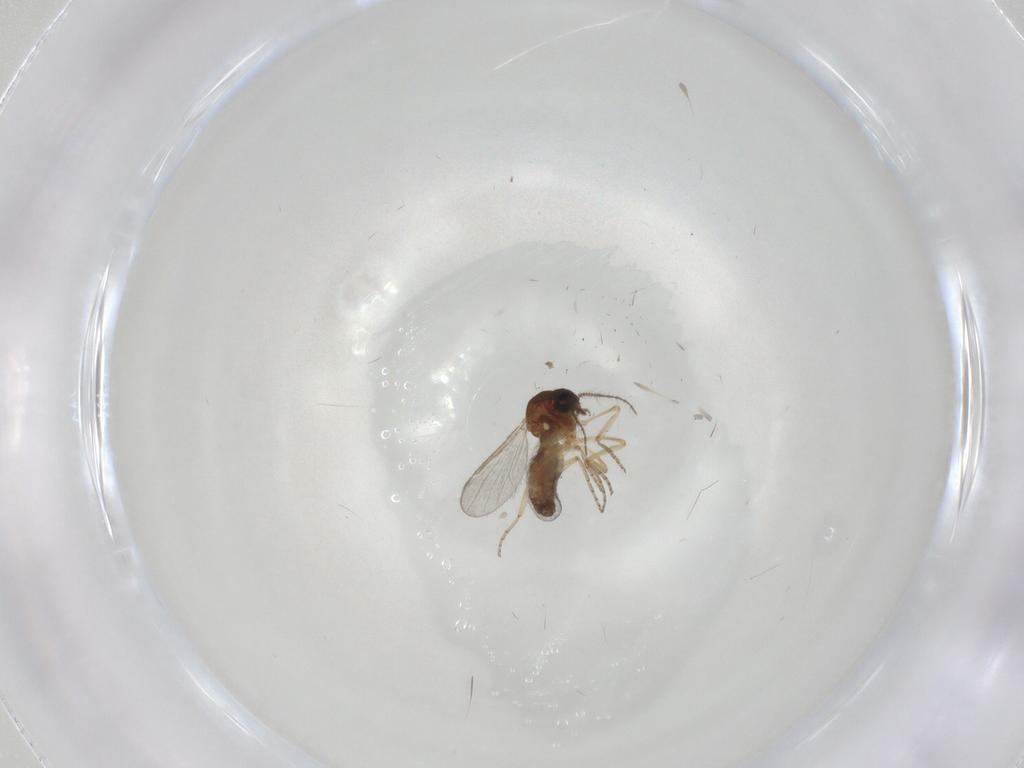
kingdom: Animalia
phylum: Arthropoda
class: Insecta
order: Diptera
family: Ceratopogonidae
